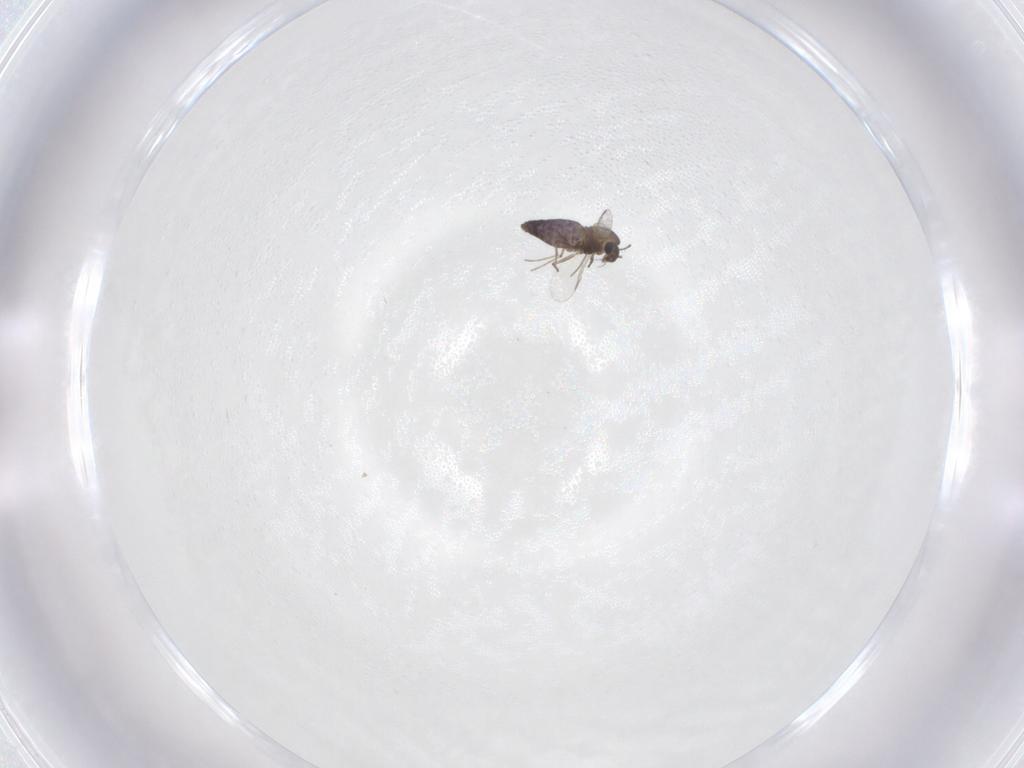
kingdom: Animalia
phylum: Arthropoda
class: Insecta
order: Diptera
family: Chironomidae
